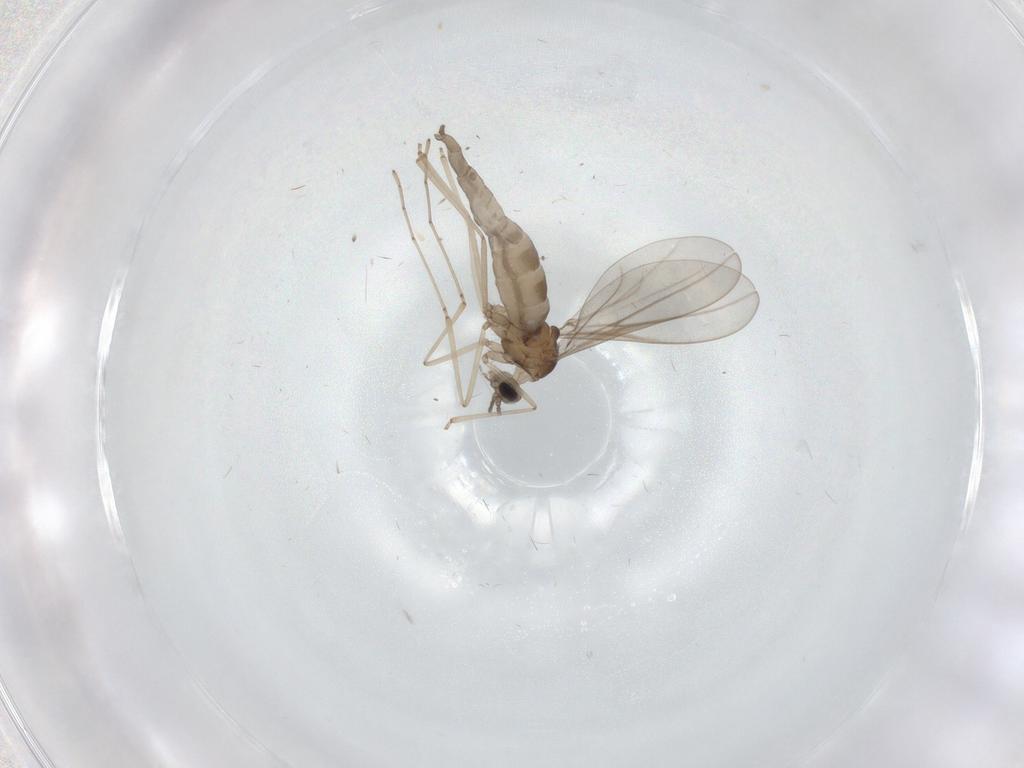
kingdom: Animalia
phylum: Arthropoda
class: Insecta
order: Diptera
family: Psychodidae
